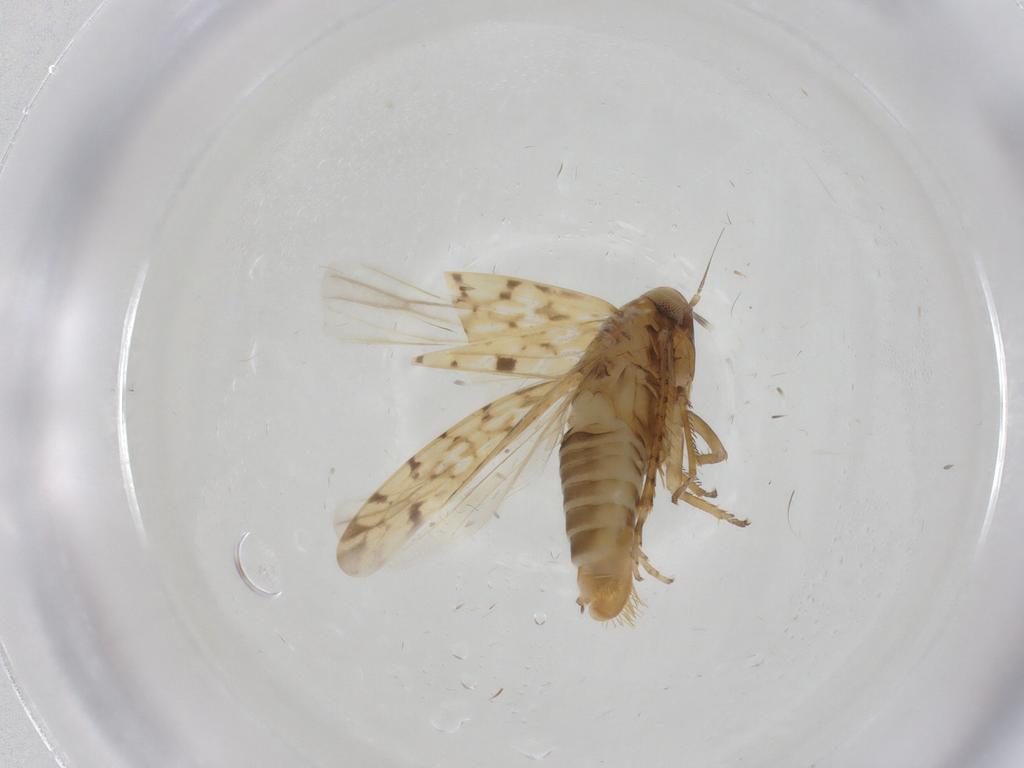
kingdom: Animalia
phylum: Arthropoda
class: Insecta
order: Hemiptera
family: Cicadellidae
